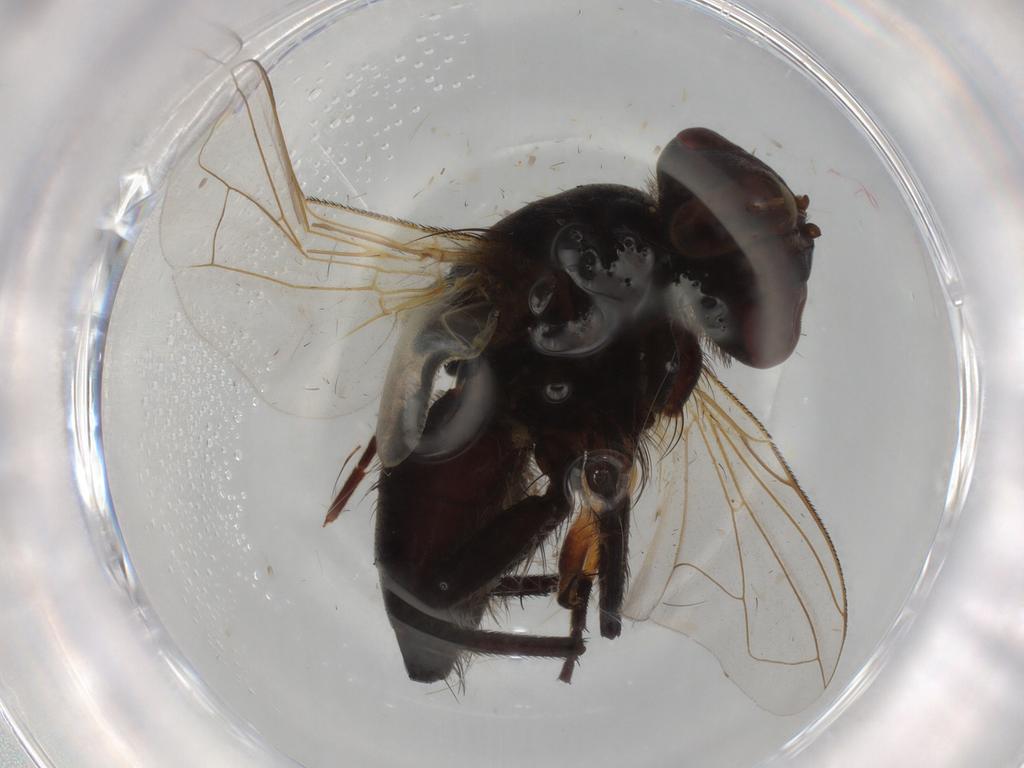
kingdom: Animalia
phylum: Arthropoda
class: Insecta
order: Diptera
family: Tachinidae
